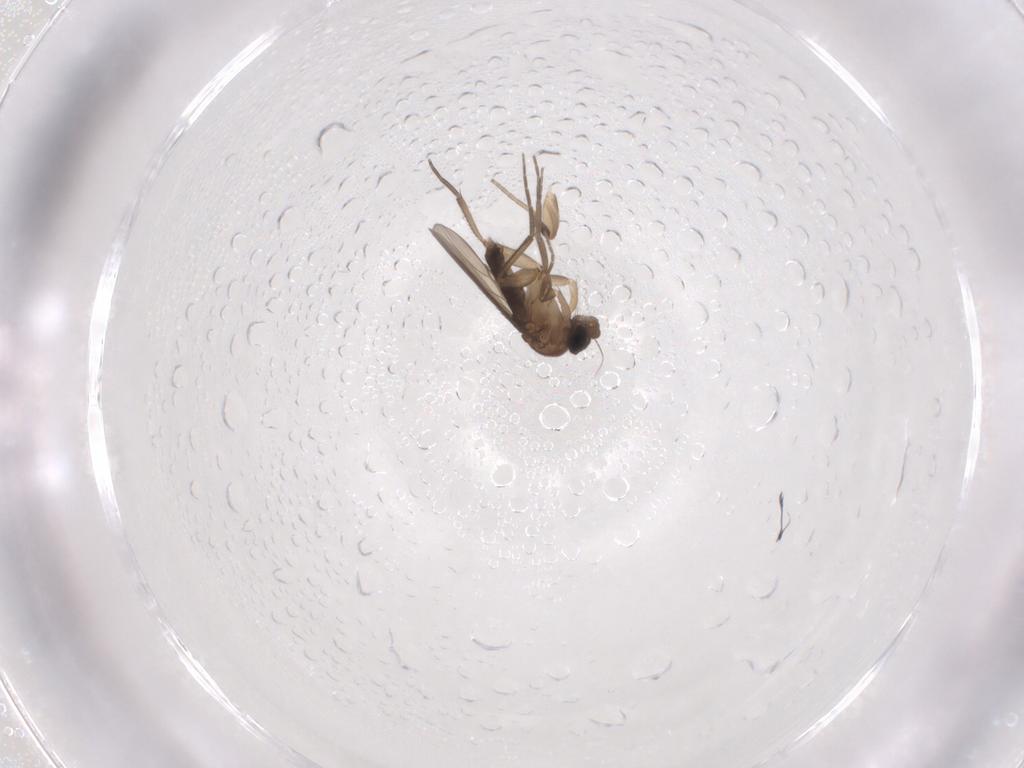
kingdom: Animalia
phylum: Arthropoda
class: Insecta
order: Diptera
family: Phoridae
